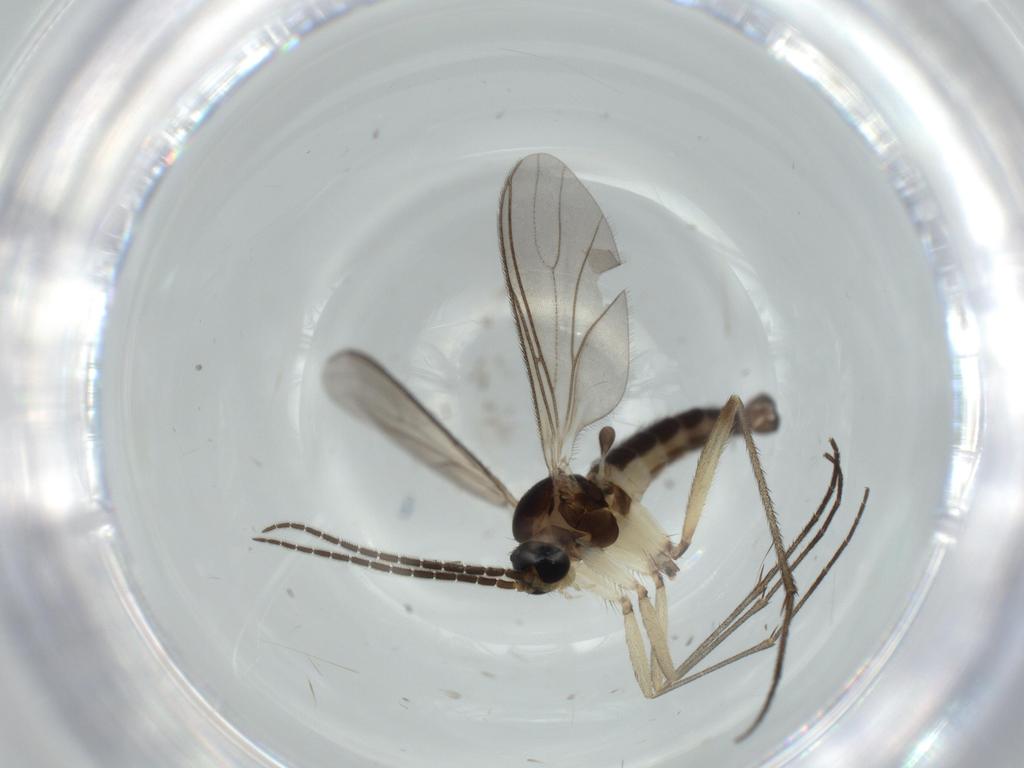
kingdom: Animalia
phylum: Arthropoda
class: Insecta
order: Diptera
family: Sciaridae
